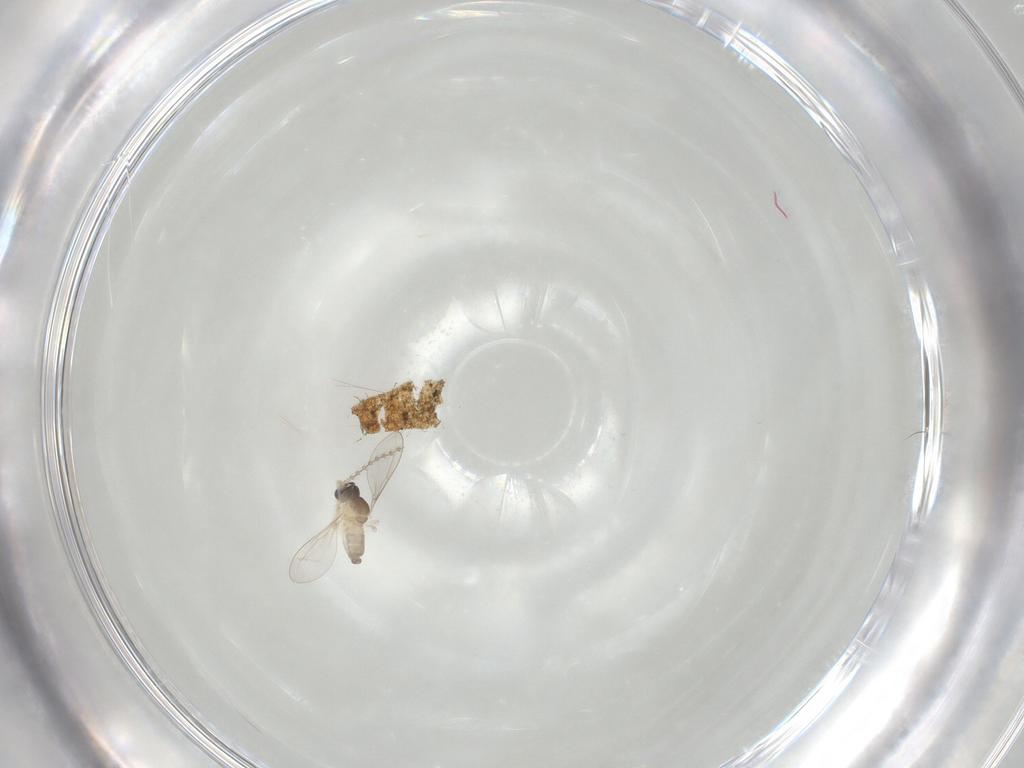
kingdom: Animalia
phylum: Arthropoda
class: Insecta
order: Diptera
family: Cecidomyiidae
